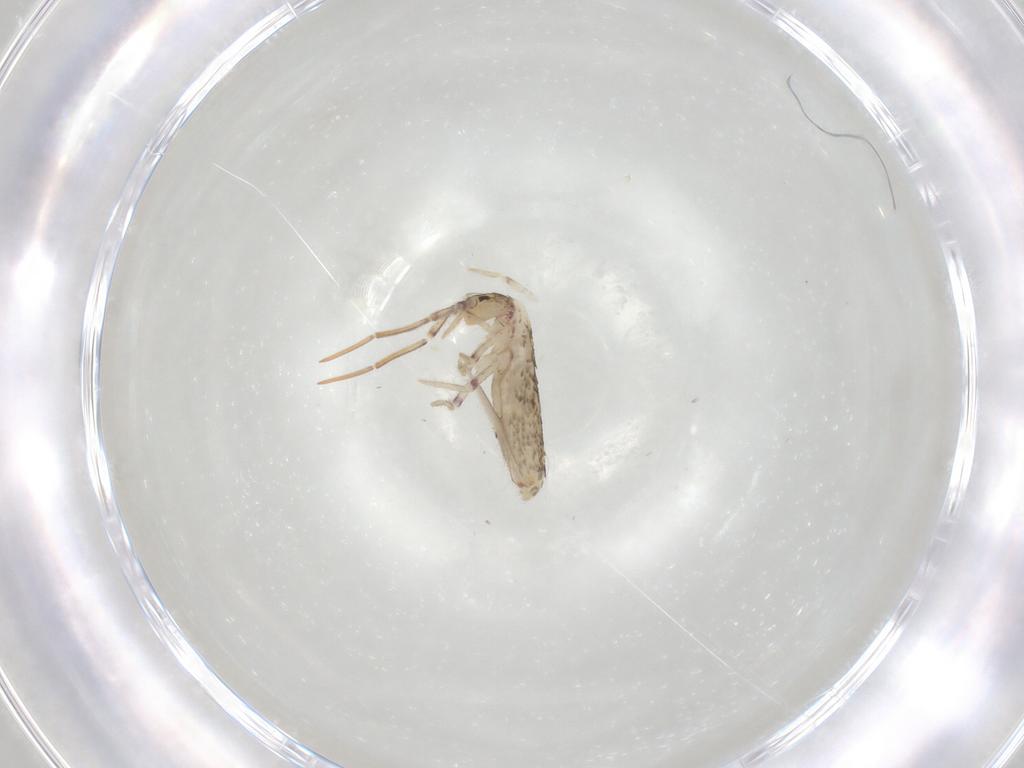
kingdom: Animalia
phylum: Arthropoda
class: Collembola
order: Entomobryomorpha
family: Entomobryidae
